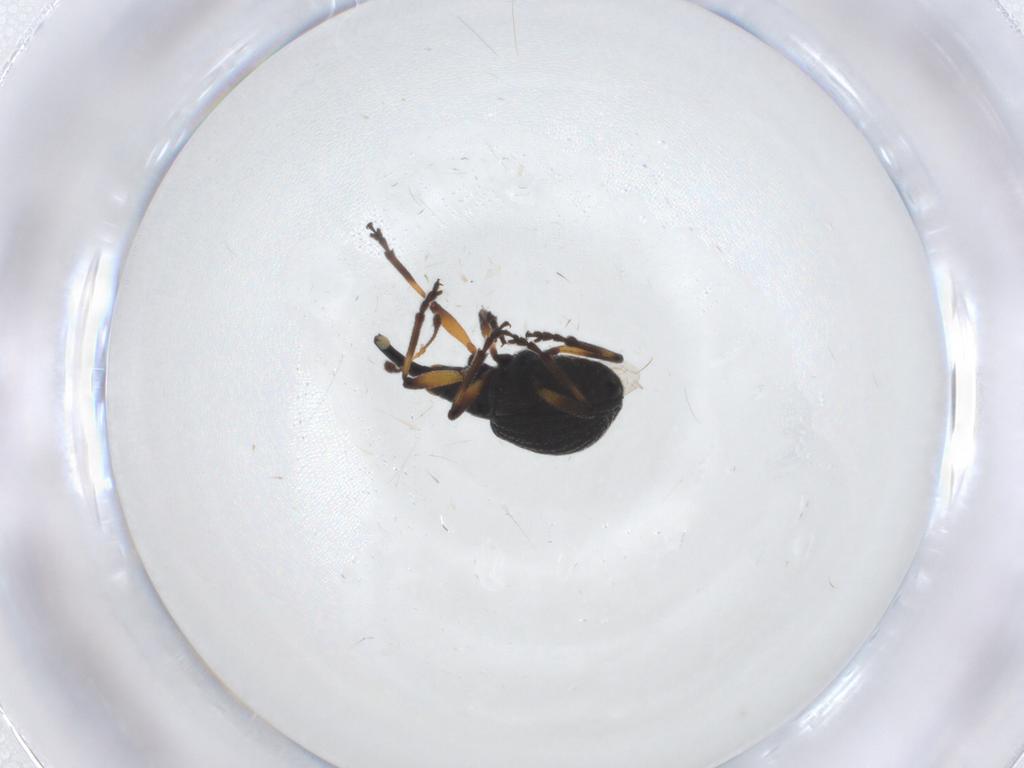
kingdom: Animalia
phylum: Arthropoda
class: Insecta
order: Coleoptera
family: Brentidae
